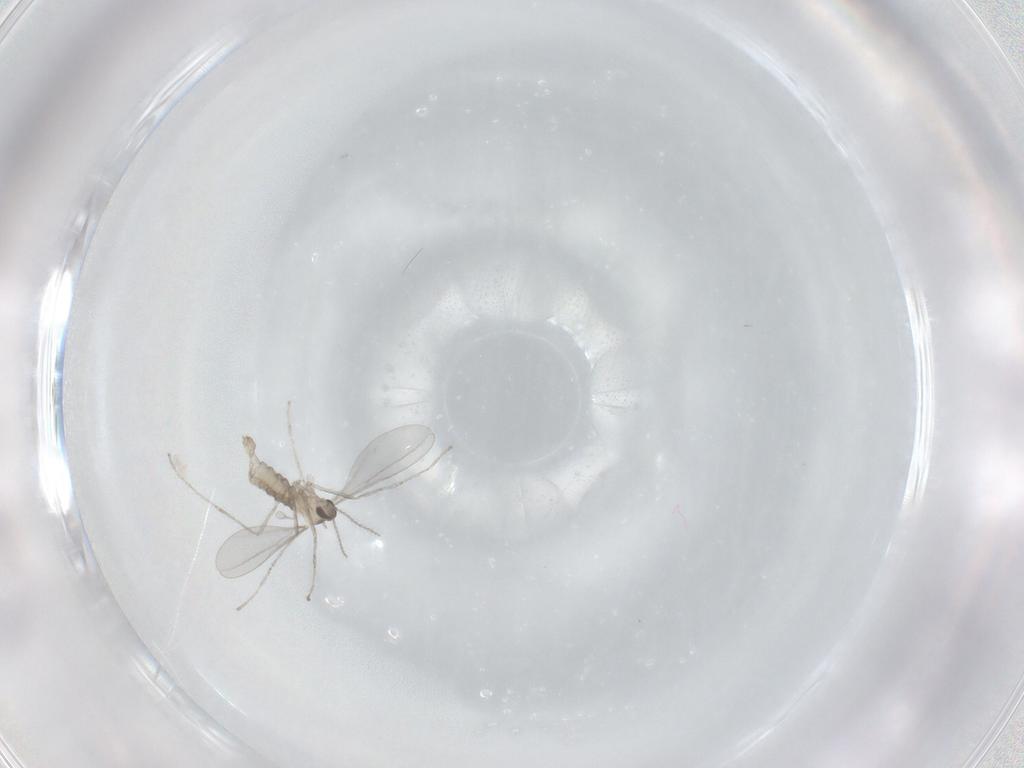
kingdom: Animalia
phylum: Arthropoda
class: Insecta
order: Diptera
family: Cecidomyiidae
